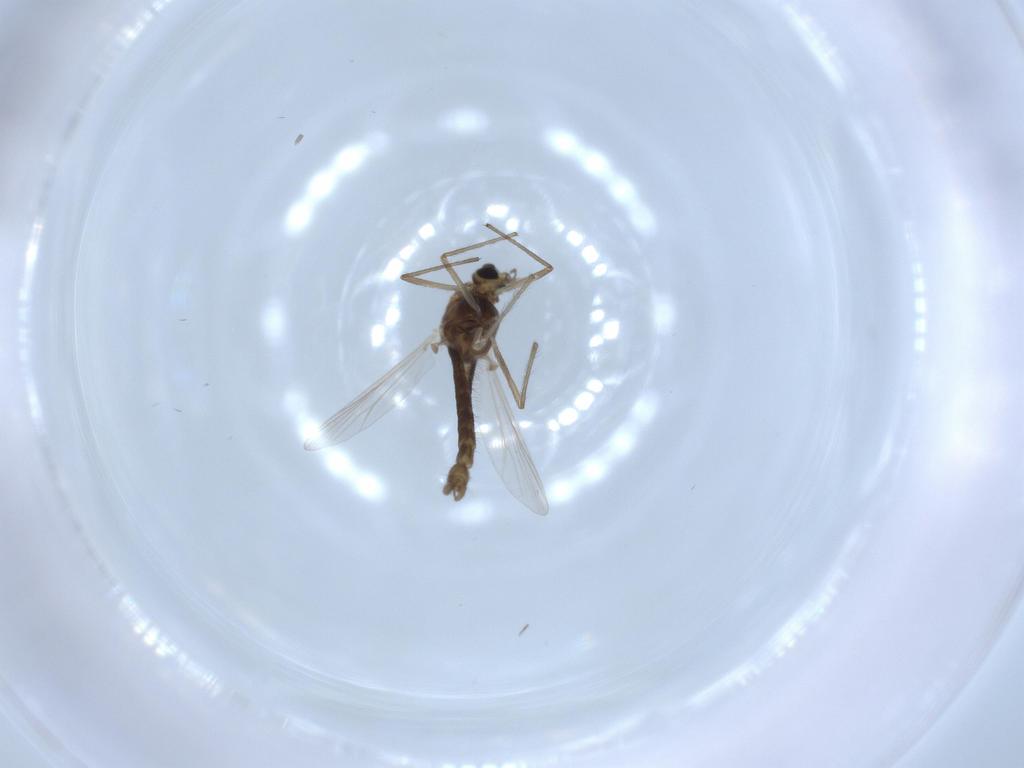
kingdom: Animalia
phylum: Arthropoda
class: Insecta
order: Diptera
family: Chironomidae
